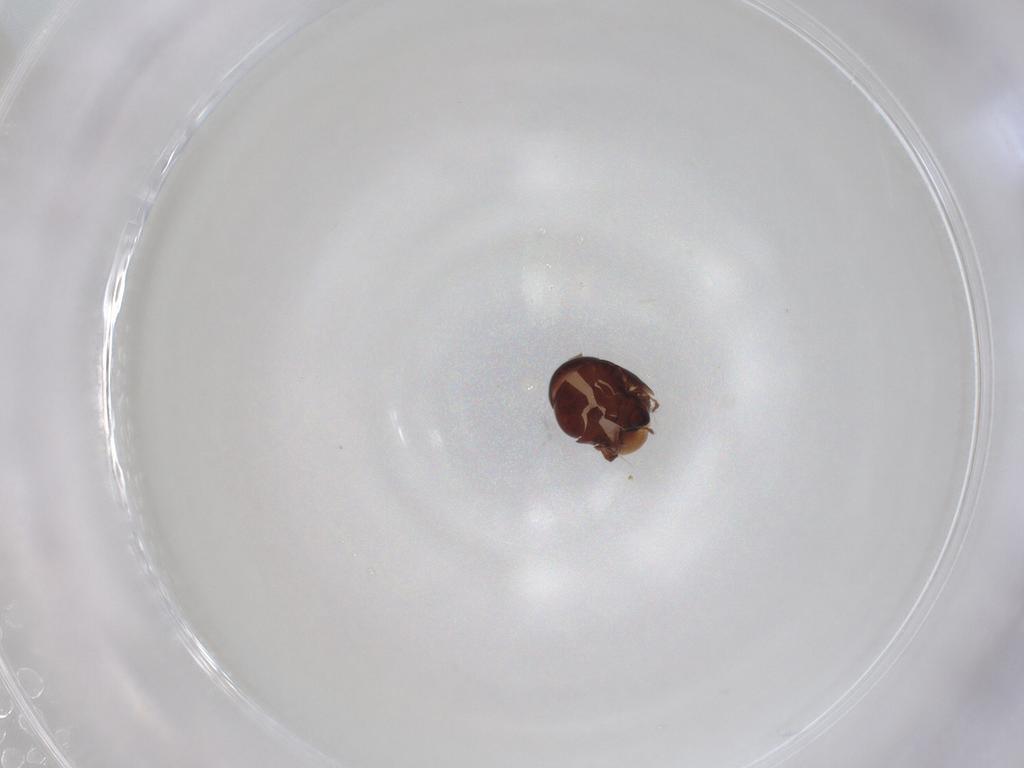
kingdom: Animalia
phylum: Arthropoda
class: Arachnida
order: Sarcoptiformes
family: Galumnidae
